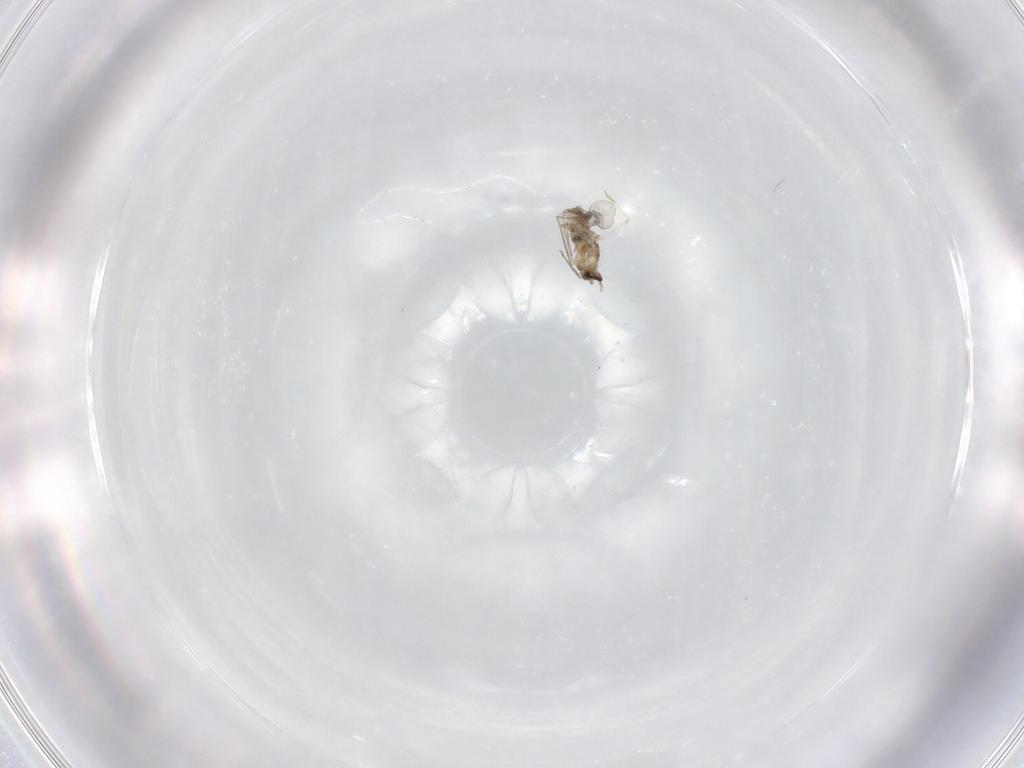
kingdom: Animalia
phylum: Arthropoda
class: Insecta
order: Diptera
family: Cecidomyiidae
